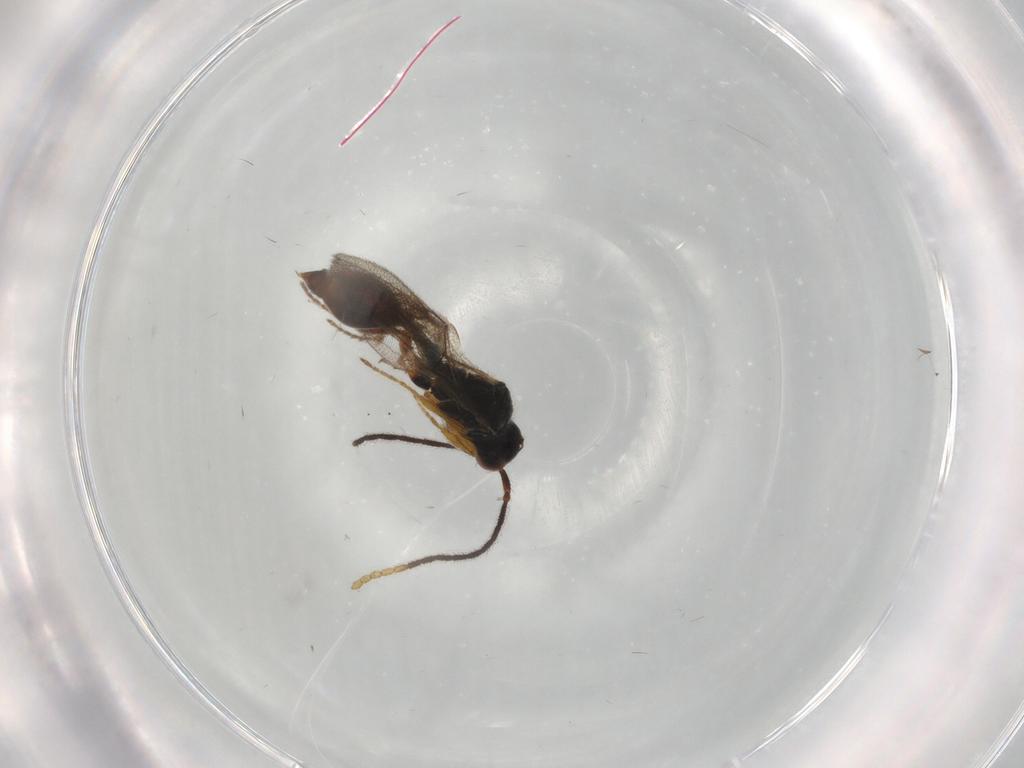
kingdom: Animalia
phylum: Arthropoda
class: Insecta
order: Hymenoptera
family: Diapriidae
